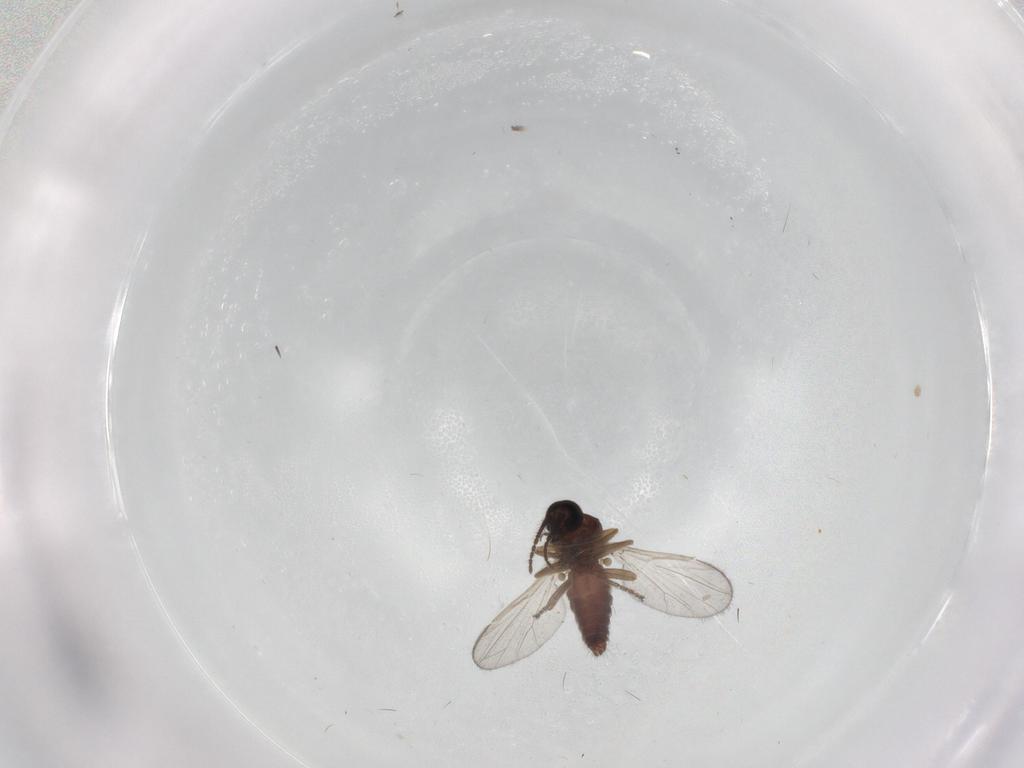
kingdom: Animalia
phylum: Arthropoda
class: Insecta
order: Diptera
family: Ceratopogonidae
